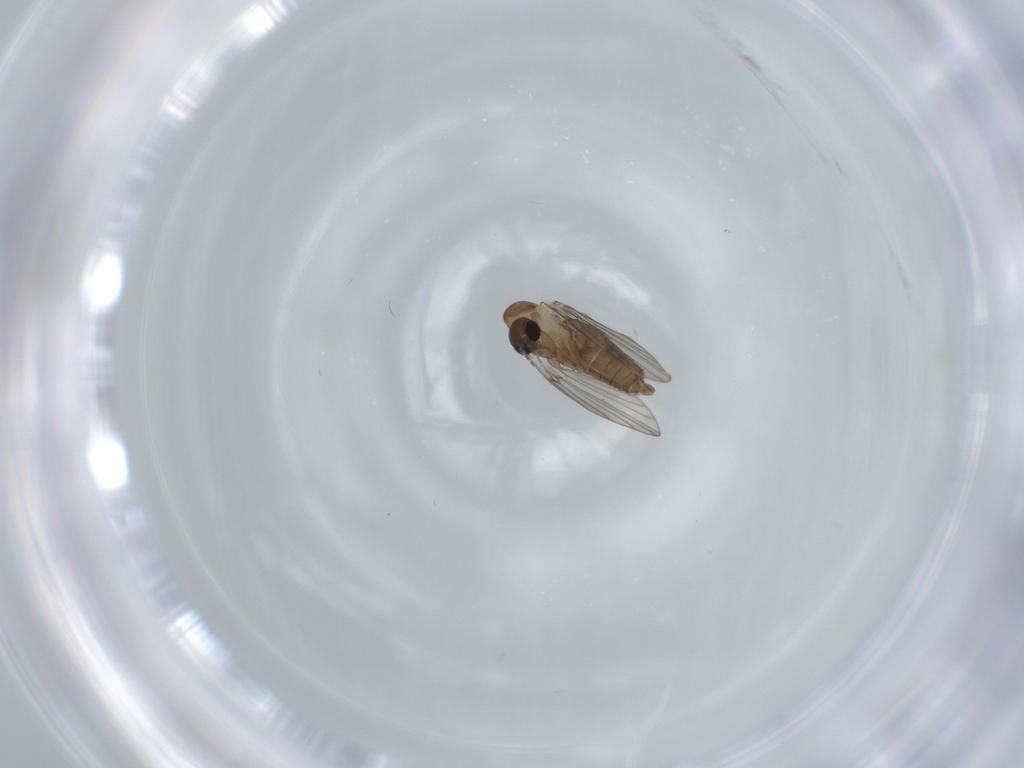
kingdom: Animalia
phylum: Arthropoda
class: Insecta
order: Diptera
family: Psychodidae
